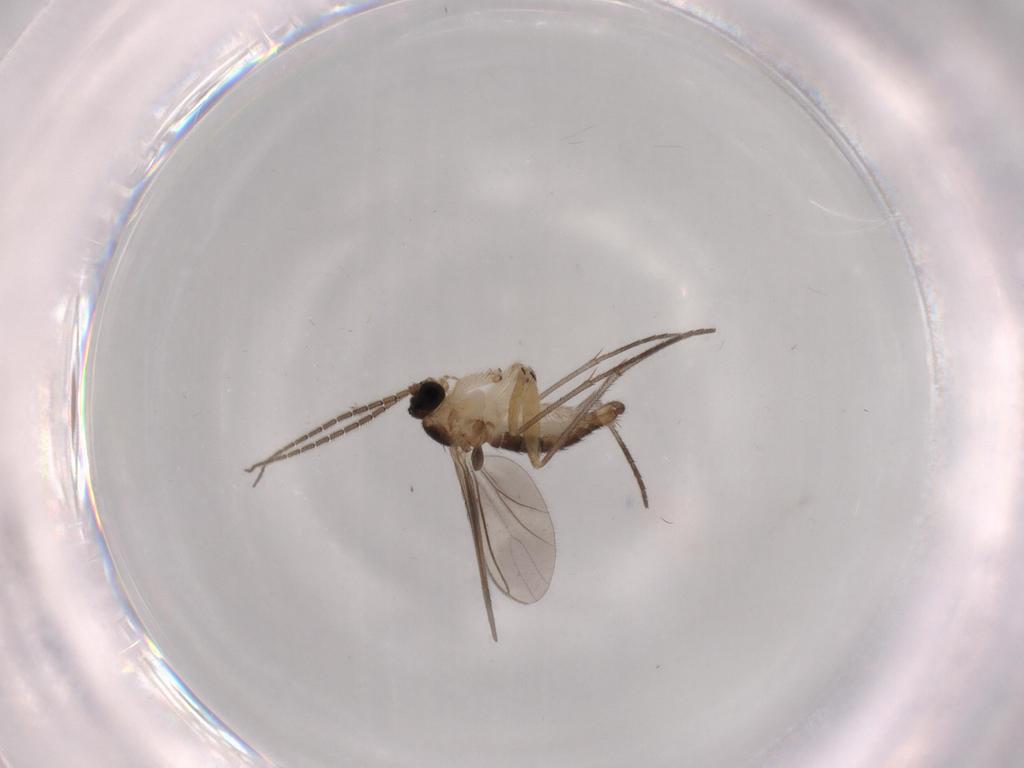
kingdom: Animalia
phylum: Arthropoda
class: Insecta
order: Diptera
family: Sciaridae
